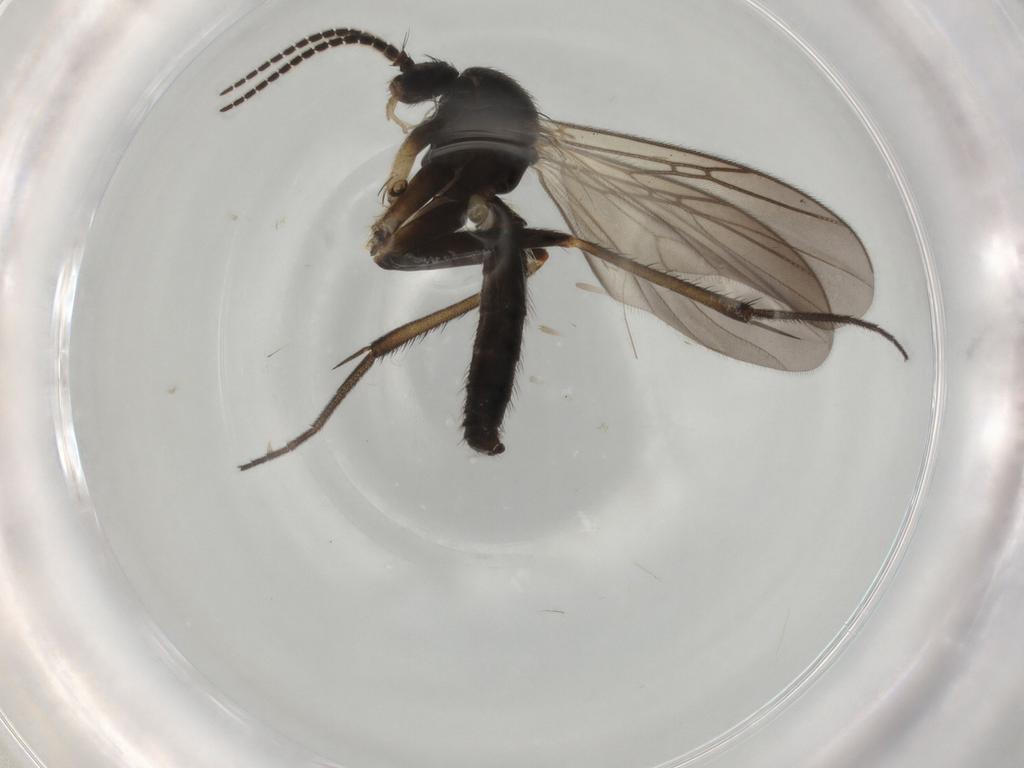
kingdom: Animalia
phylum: Arthropoda
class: Insecta
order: Diptera
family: Chironomidae
